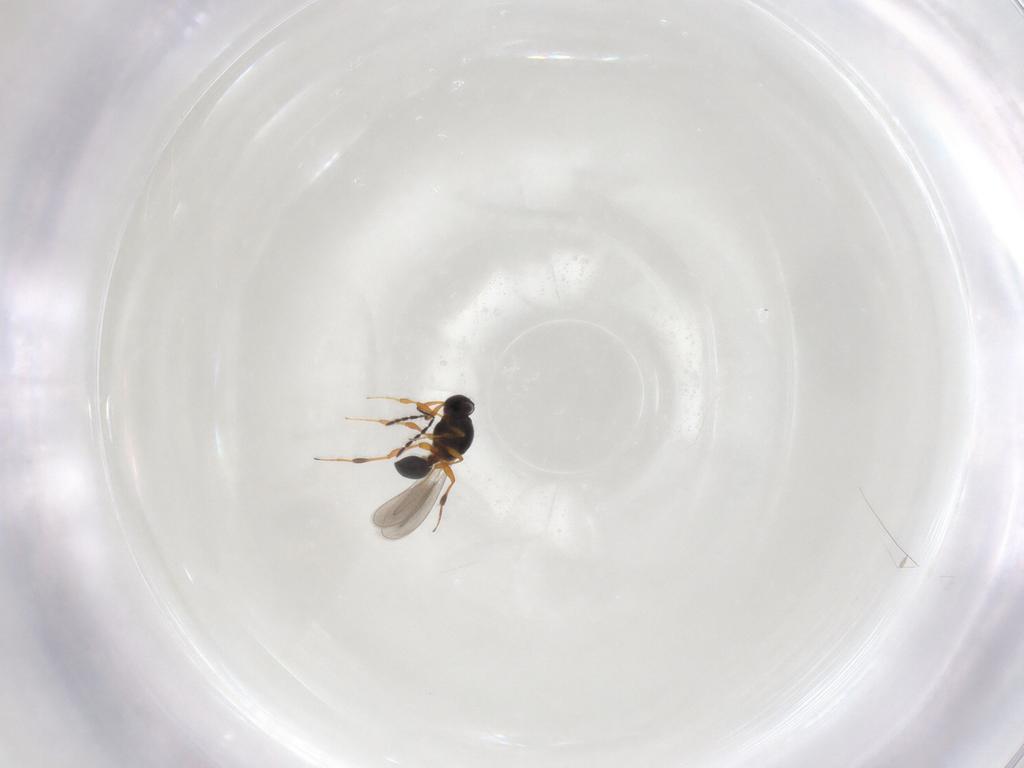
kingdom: Animalia
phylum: Arthropoda
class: Insecta
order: Hymenoptera
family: Platygastridae
